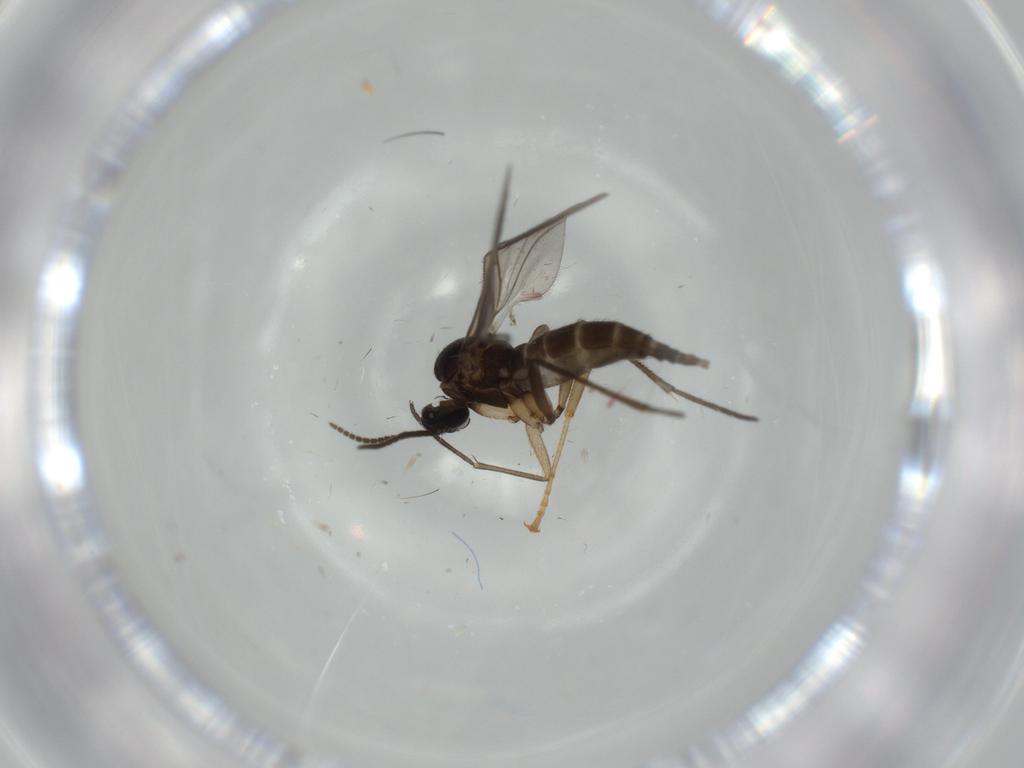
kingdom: Animalia
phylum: Arthropoda
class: Insecta
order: Diptera
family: Sciaridae
